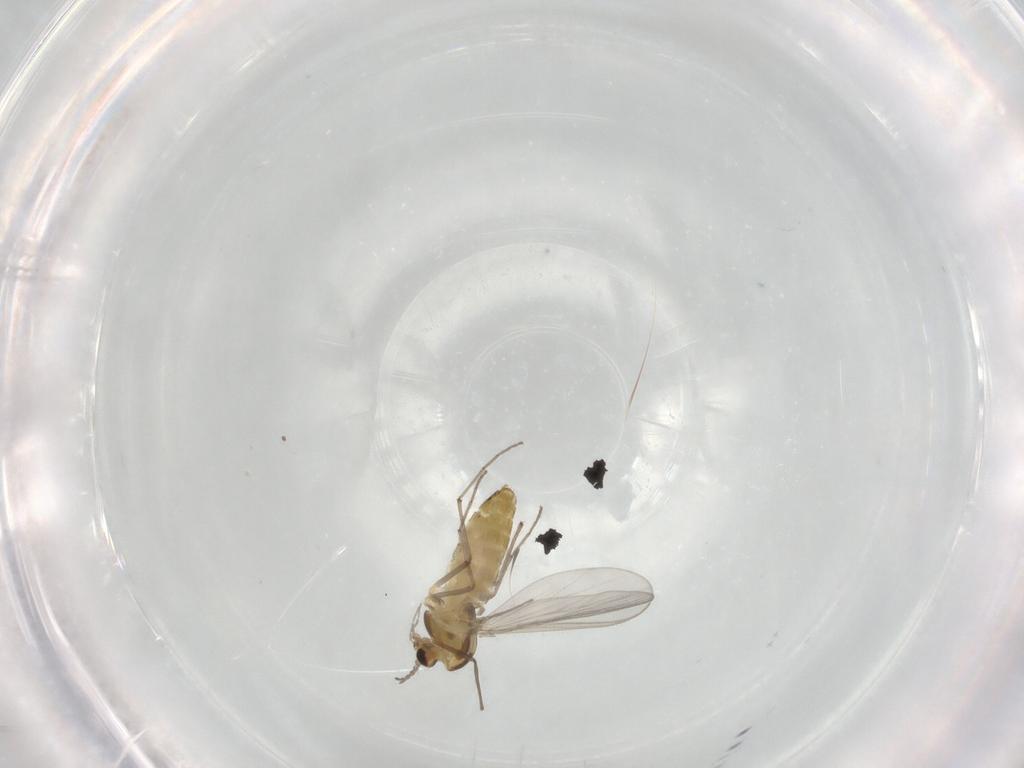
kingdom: Animalia
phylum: Arthropoda
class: Insecta
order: Diptera
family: Chironomidae
